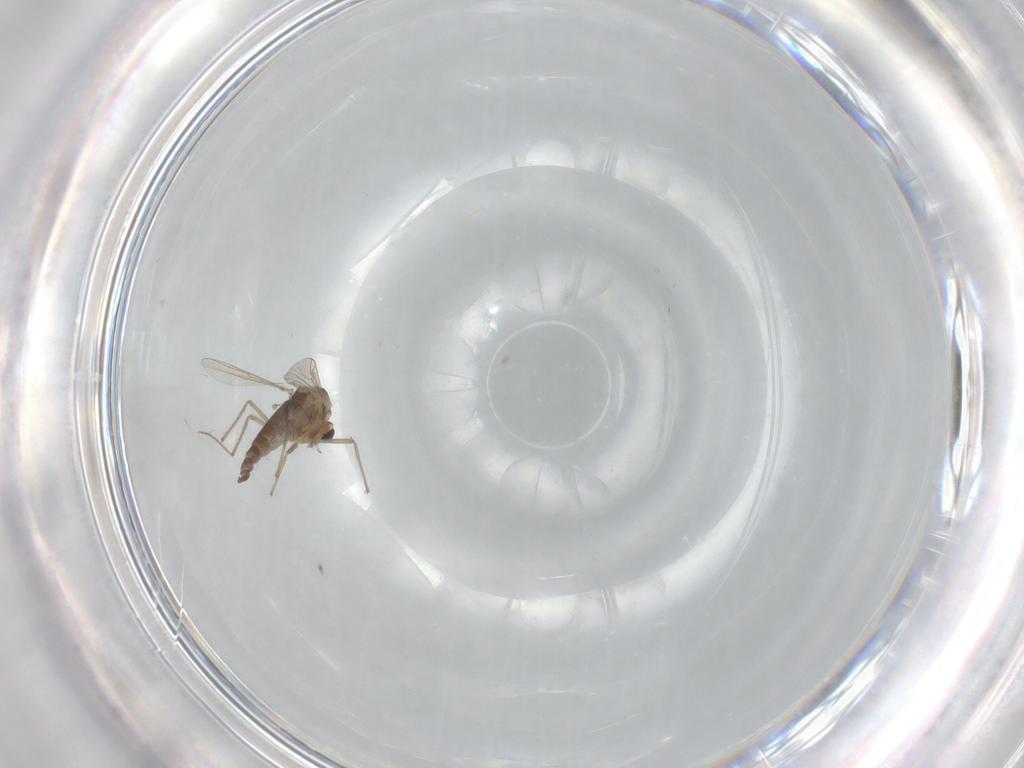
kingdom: Animalia
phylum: Arthropoda
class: Insecta
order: Diptera
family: Chironomidae
